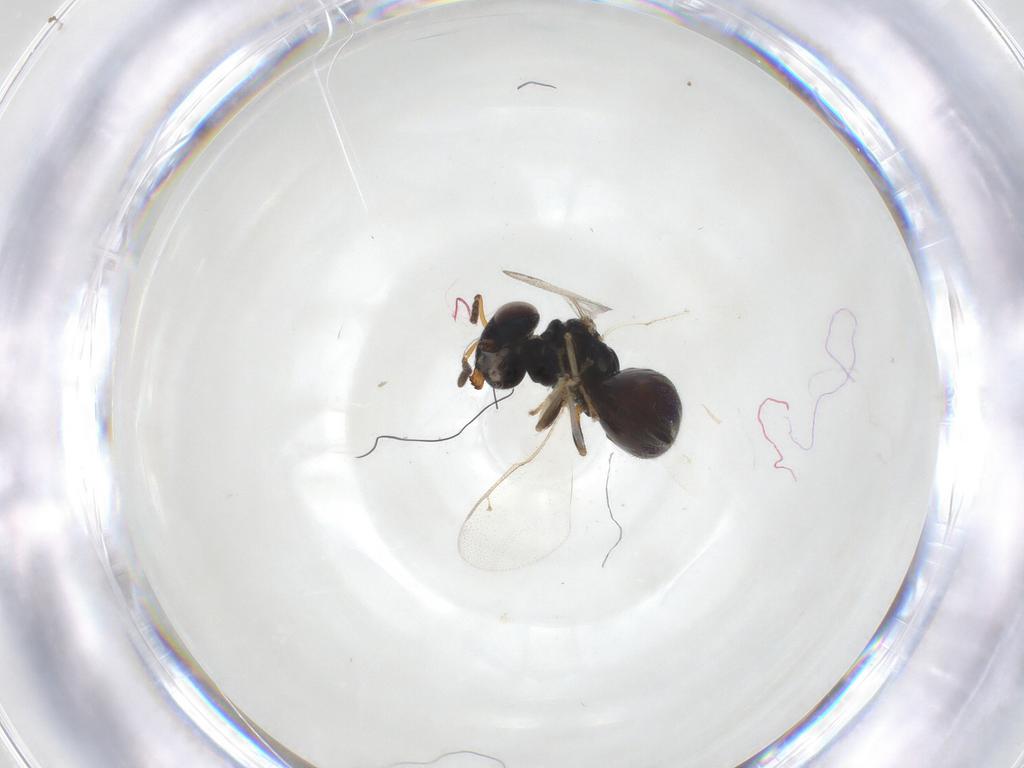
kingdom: Animalia
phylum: Arthropoda
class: Insecta
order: Hymenoptera
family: Pteromalidae
